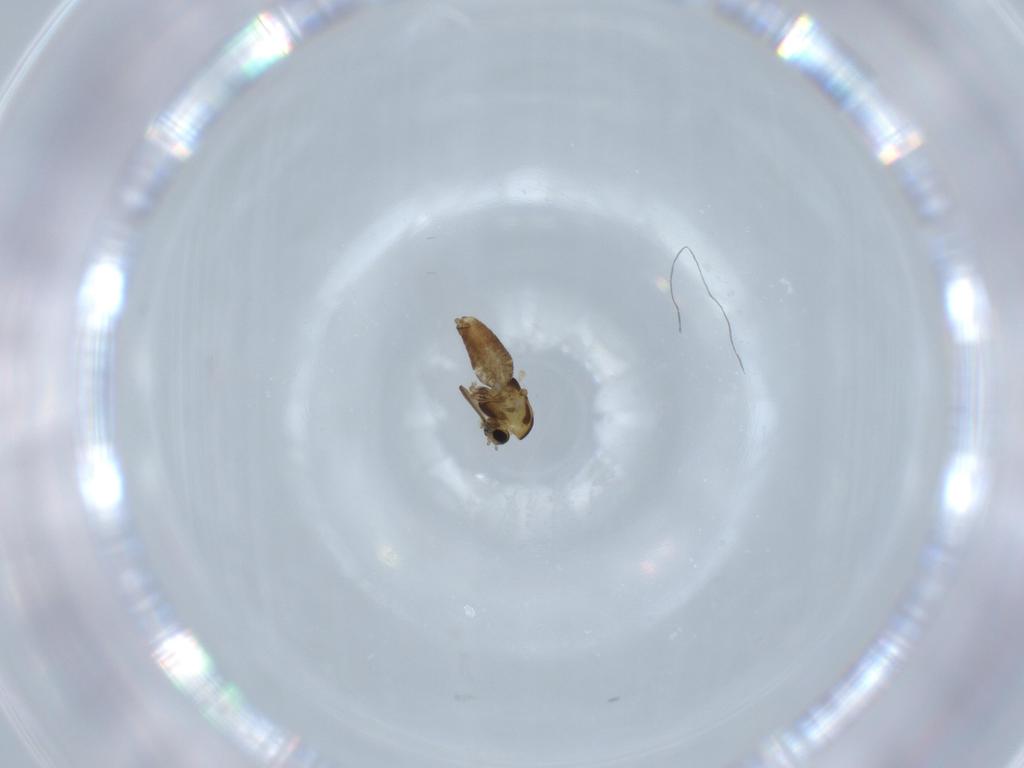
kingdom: Animalia
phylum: Arthropoda
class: Insecta
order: Diptera
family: Chironomidae
